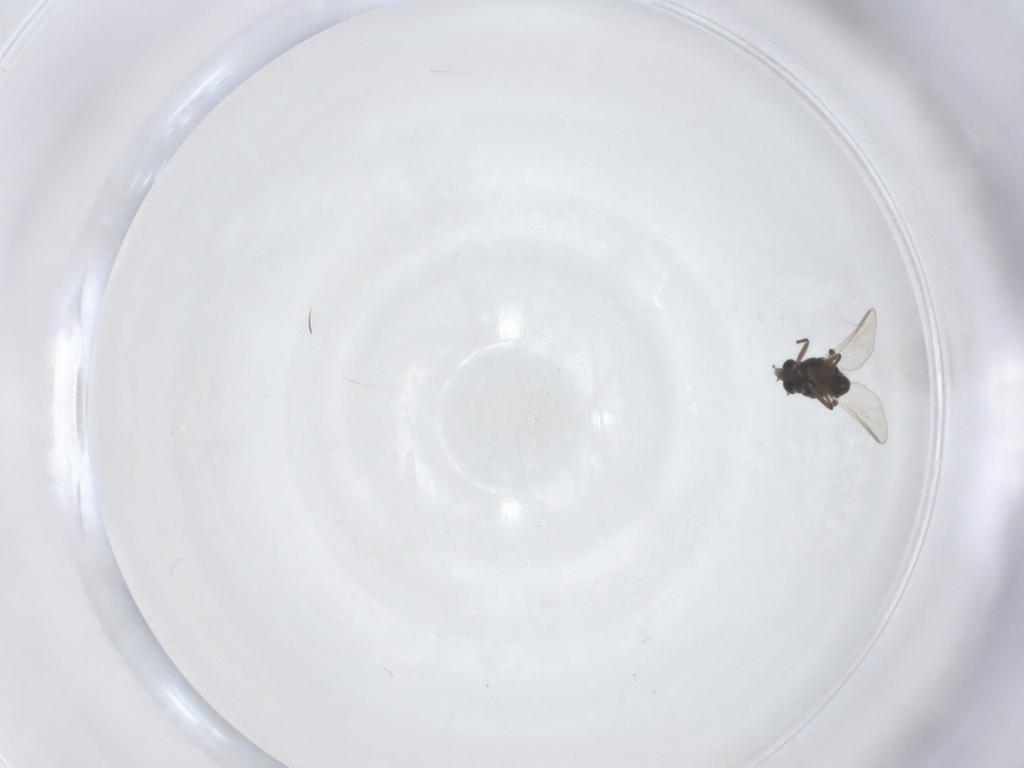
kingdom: Animalia
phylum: Arthropoda
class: Insecta
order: Diptera
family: Chironomidae
